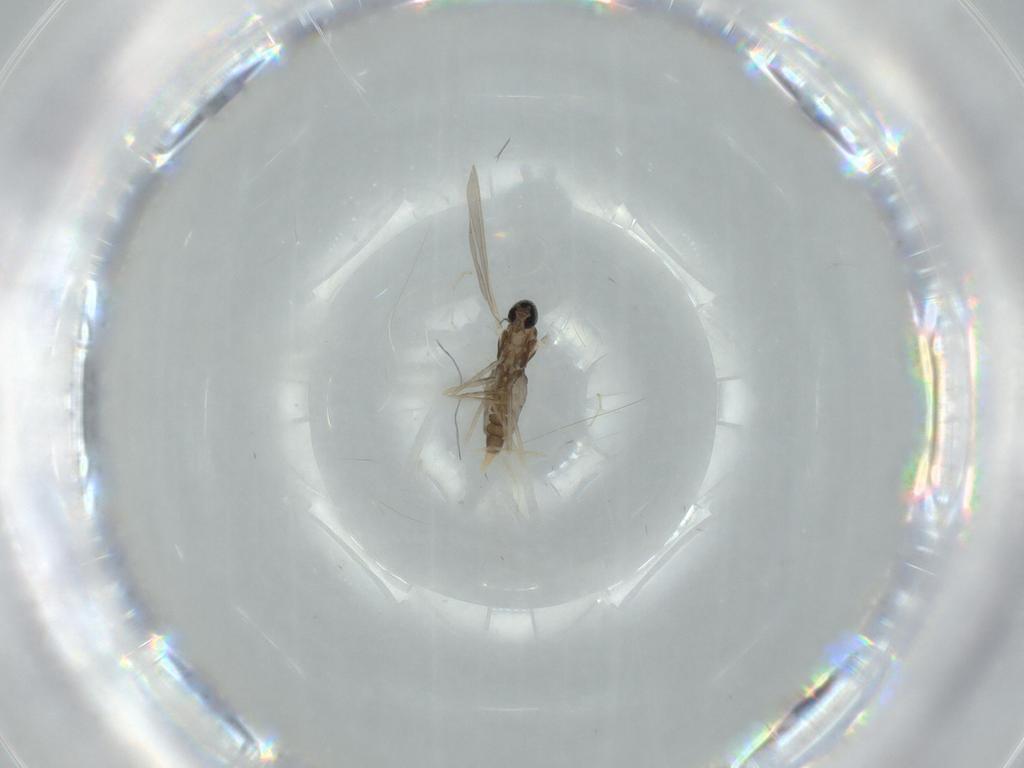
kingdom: Animalia
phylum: Arthropoda
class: Insecta
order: Diptera
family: Cecidomyiidae
